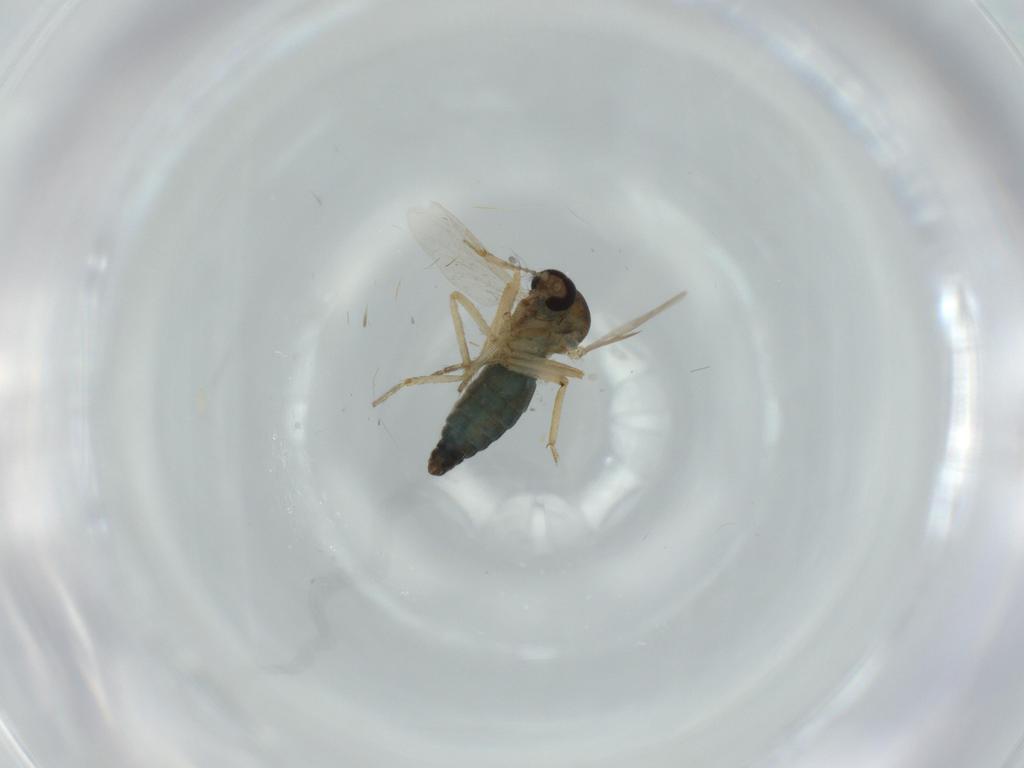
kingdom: Animalia
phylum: Arthropoda
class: Insecta
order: Diptera
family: Ceratopogonidae
